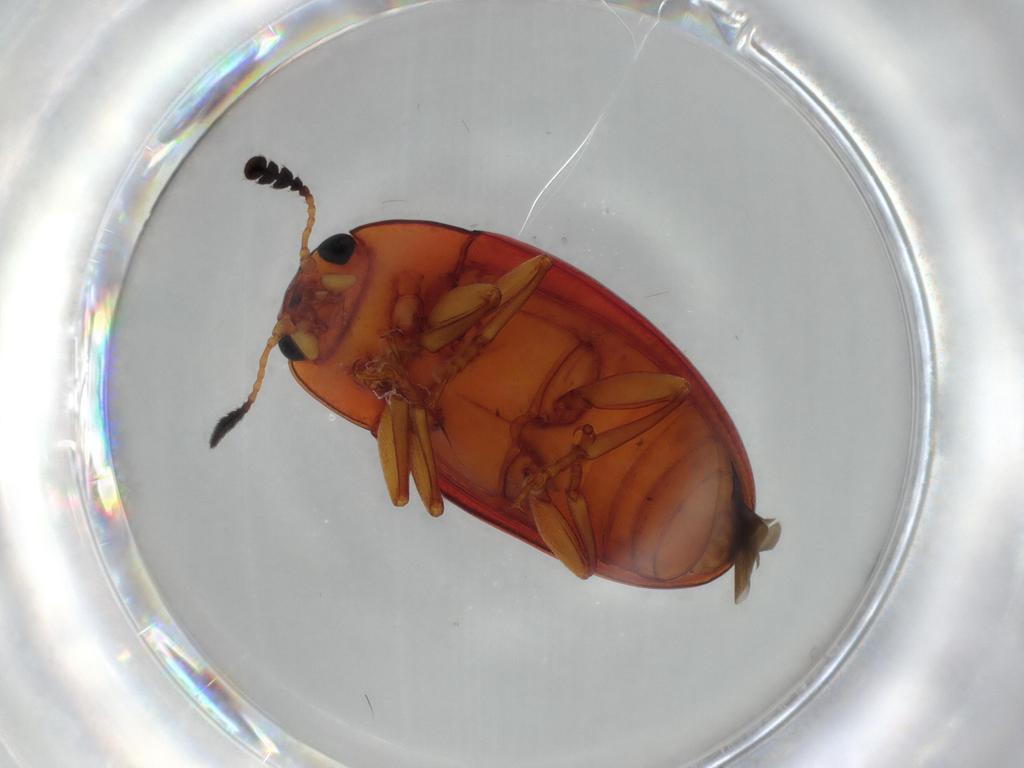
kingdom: Animalia
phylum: Arthropoda
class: Insecta
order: Coleoptera
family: Erotylidae
